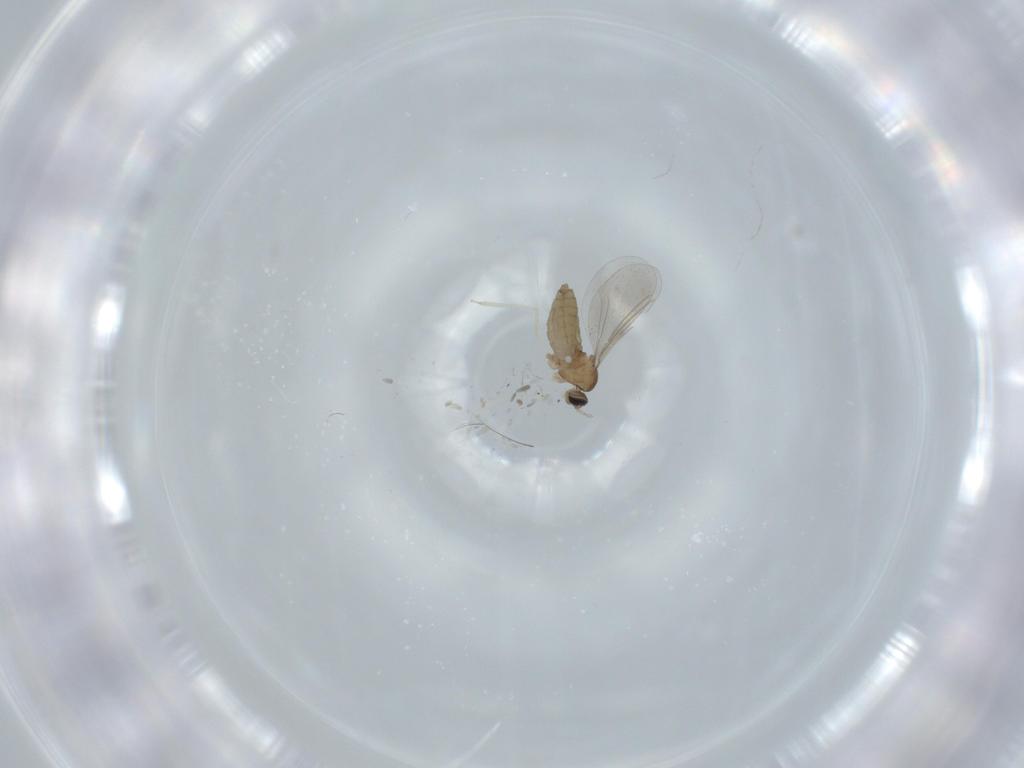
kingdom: Animalia
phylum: Arthropoda
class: Insecta
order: Diptera
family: Cecidomyiidae
